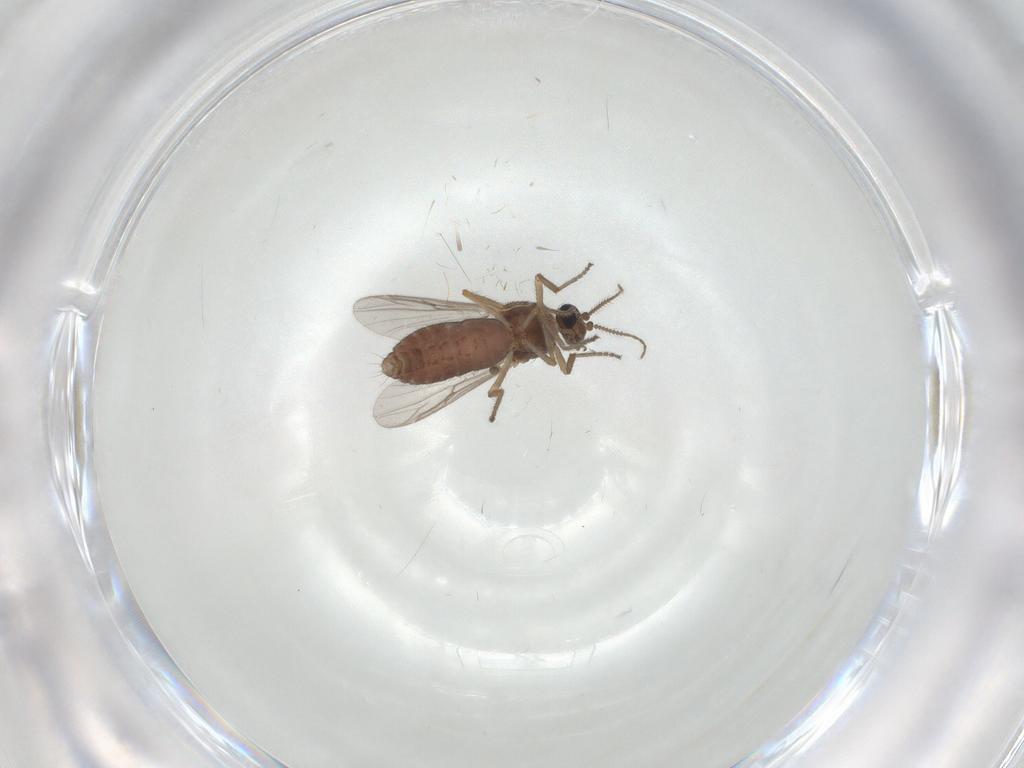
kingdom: Animalia
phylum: Arthropoda
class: Insecta
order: Diptera
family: Ceratopogonidae
